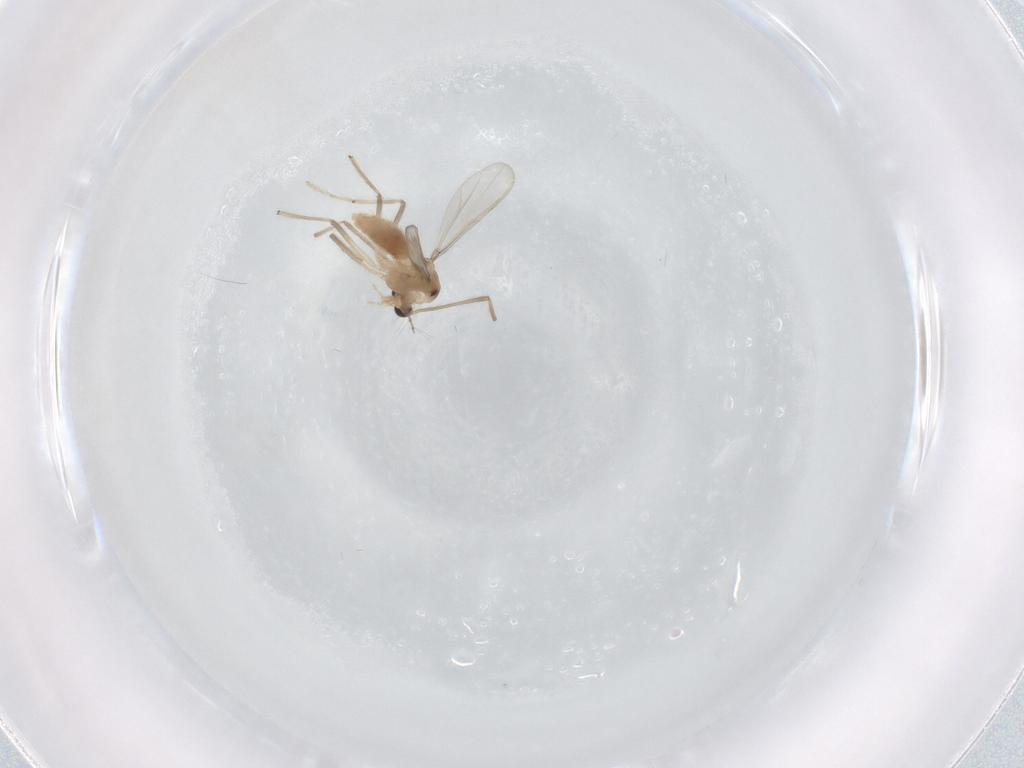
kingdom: Animalia
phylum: Arthropoda
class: Insecta
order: Diptera
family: Chironomidae
